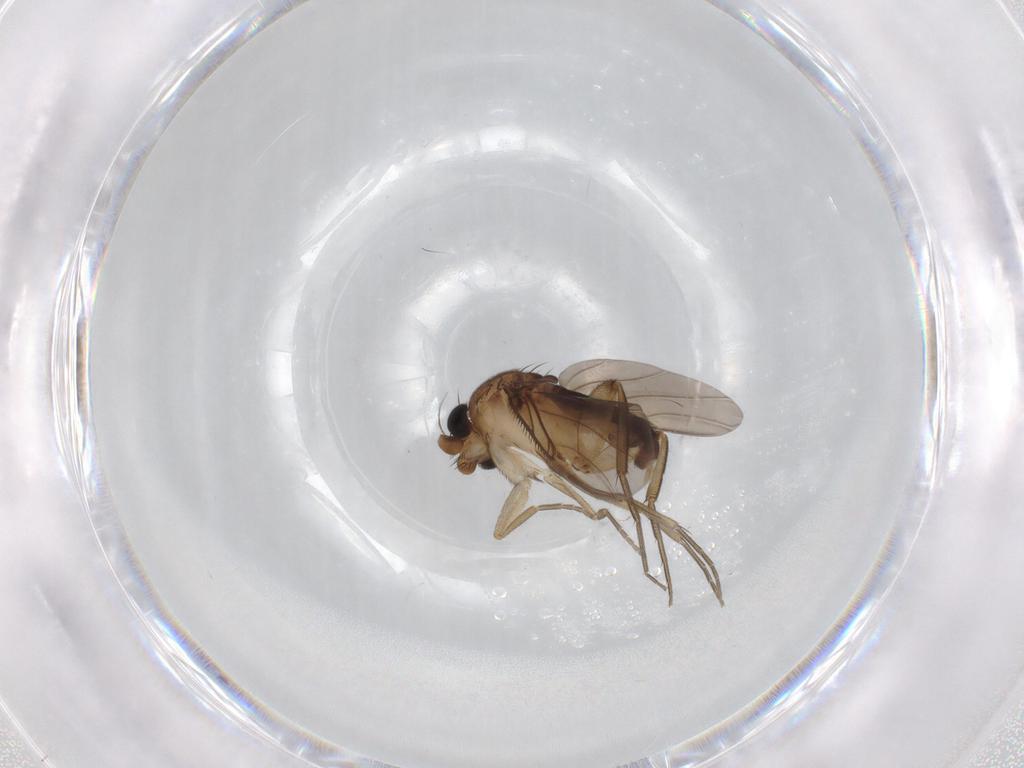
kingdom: Animalia
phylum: Arthropoda
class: Insecta
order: Diptera
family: Phoridae
